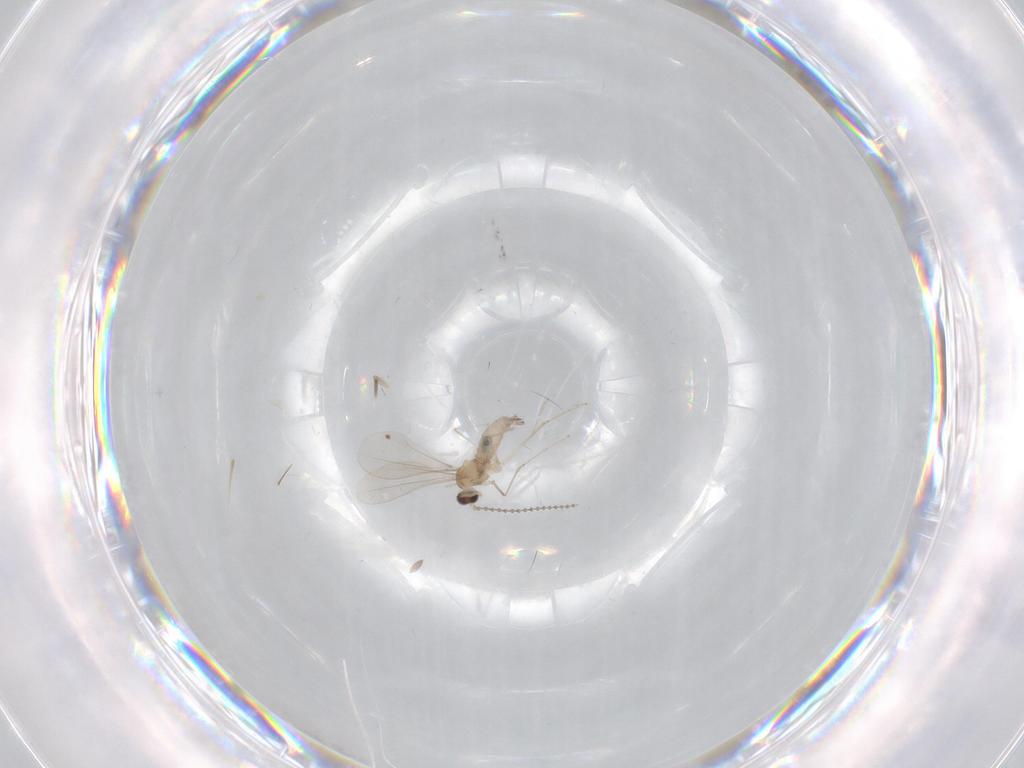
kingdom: Animalia
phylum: Arthropoda
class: Insecta
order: Diptera
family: Cecidomyiidae
